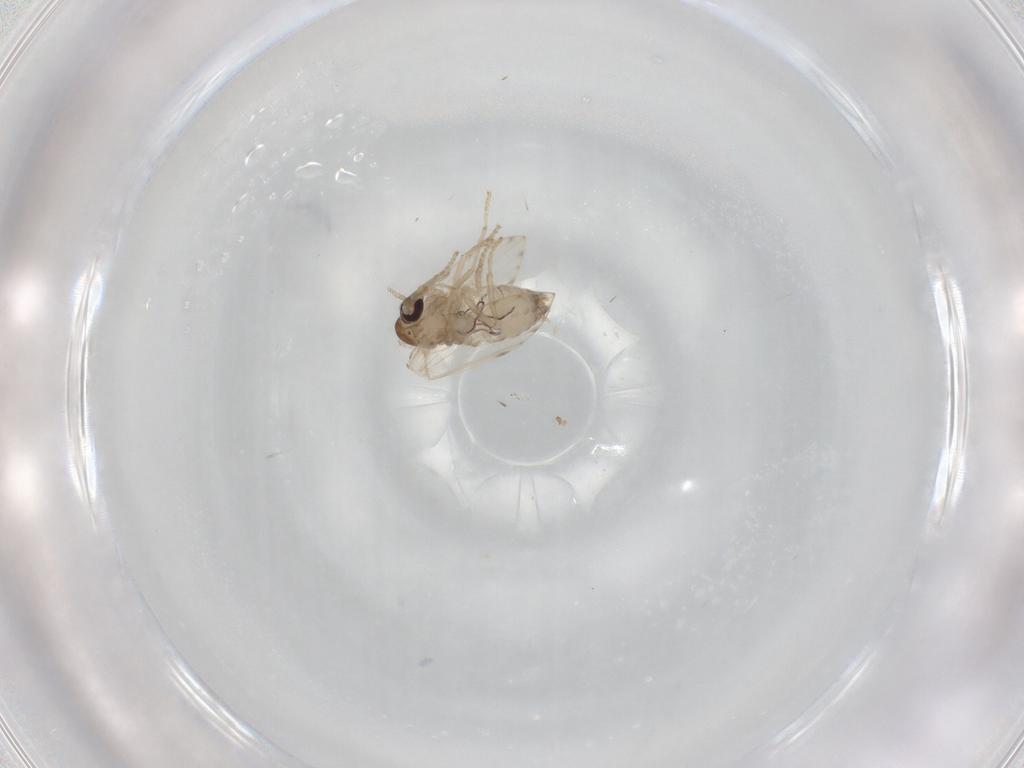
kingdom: Animalia
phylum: Arthropoda
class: Insecta
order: Diptera
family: Psychodidae
